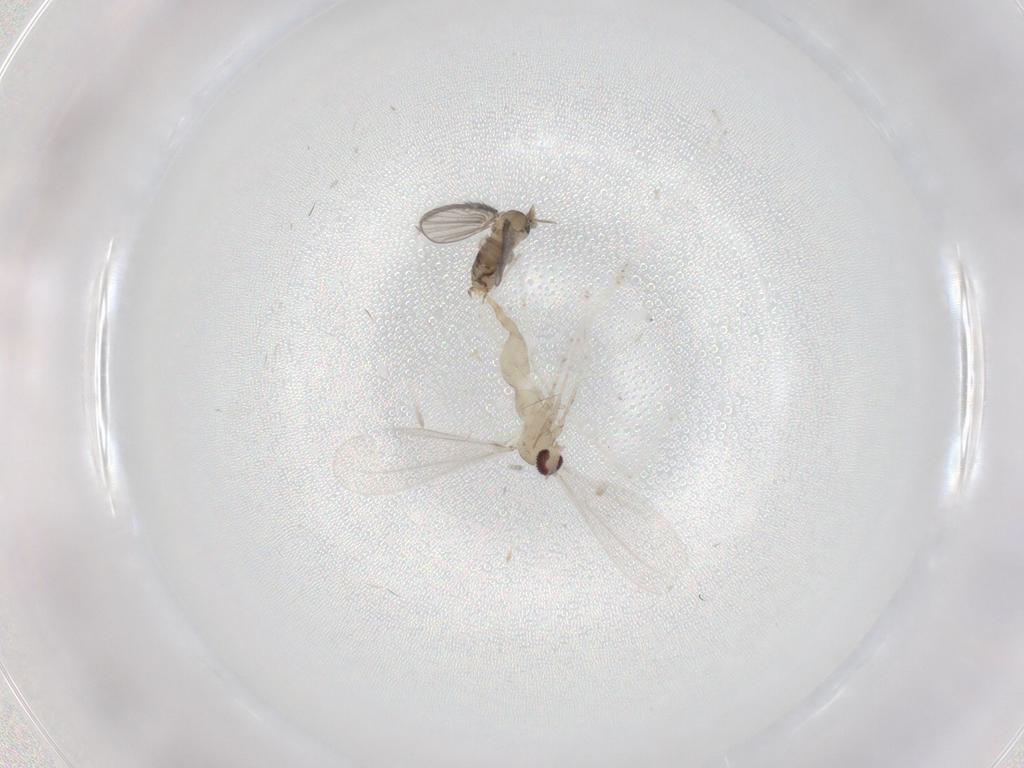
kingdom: Animalia
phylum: Arthropoda
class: Insecta
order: Diptera
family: Cecidomyiidae
